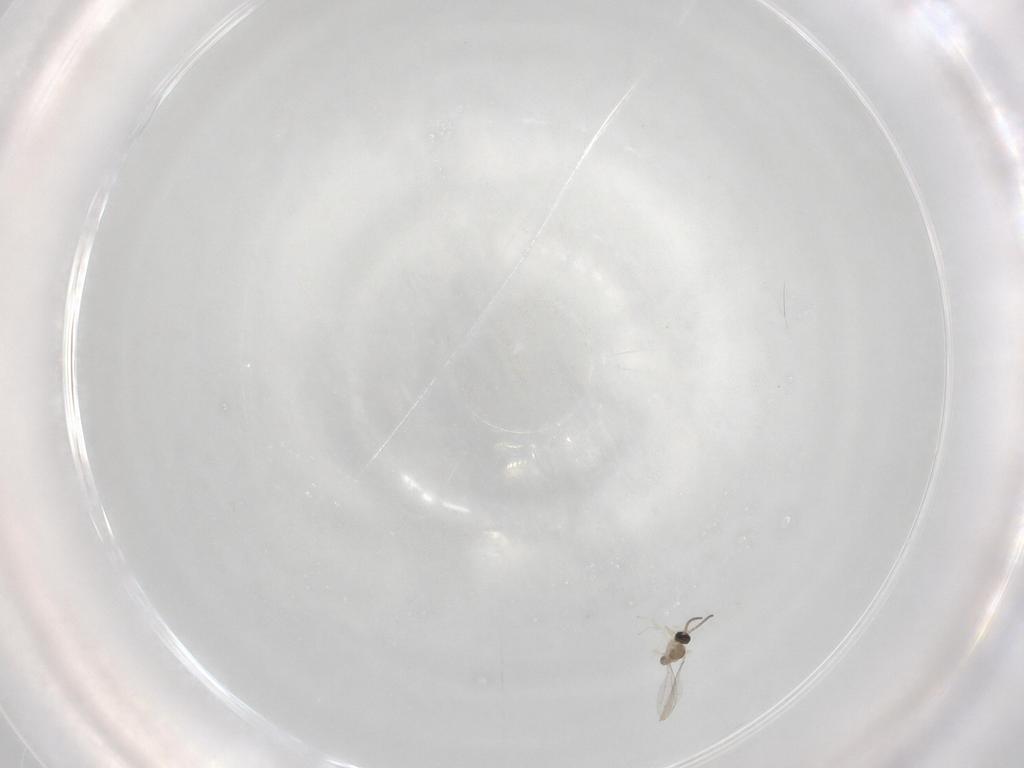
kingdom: Animalia
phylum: Arthropoda
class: Insecta
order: Diptera
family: Cecidomyiidae
